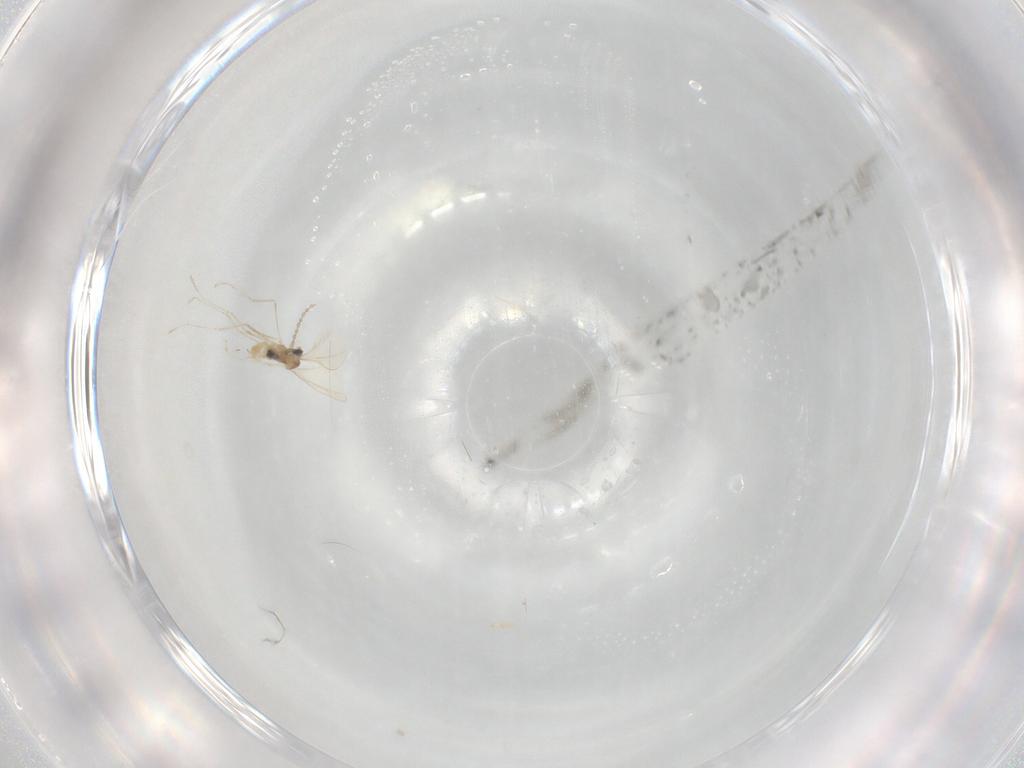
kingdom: Animalia
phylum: Arthropoda
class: Insecta
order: Diptera
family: Cecidomyiidae
